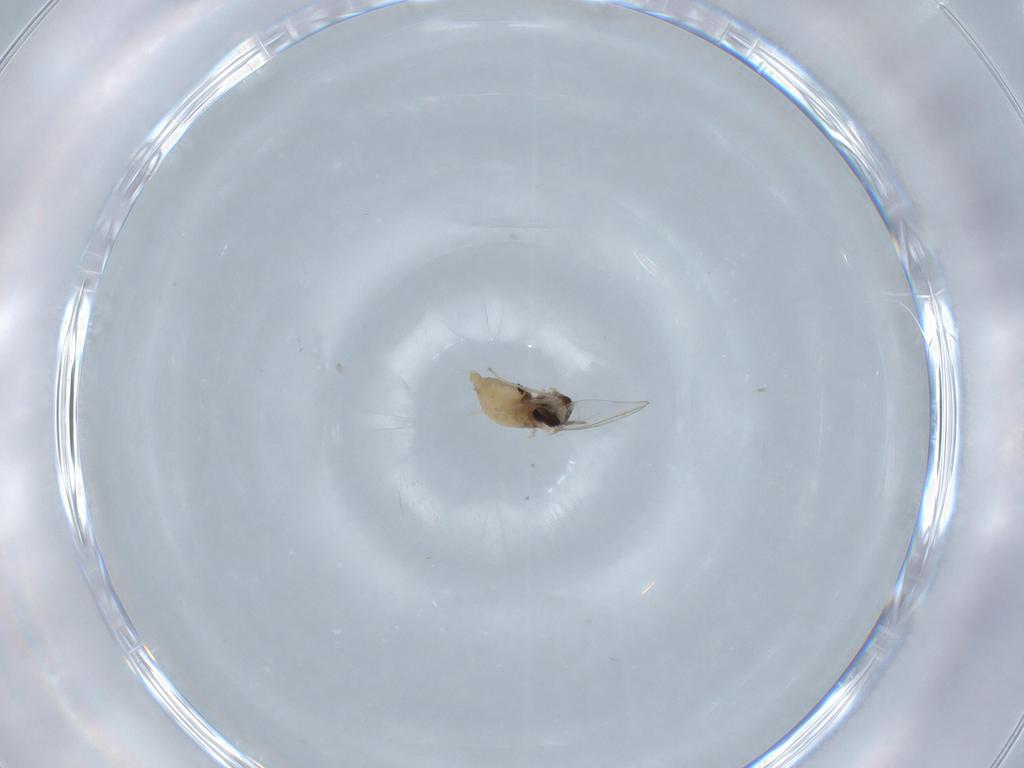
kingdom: Animalia
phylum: Arthropoda
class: Insecta
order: Diptera
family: Cecidomyiidae
